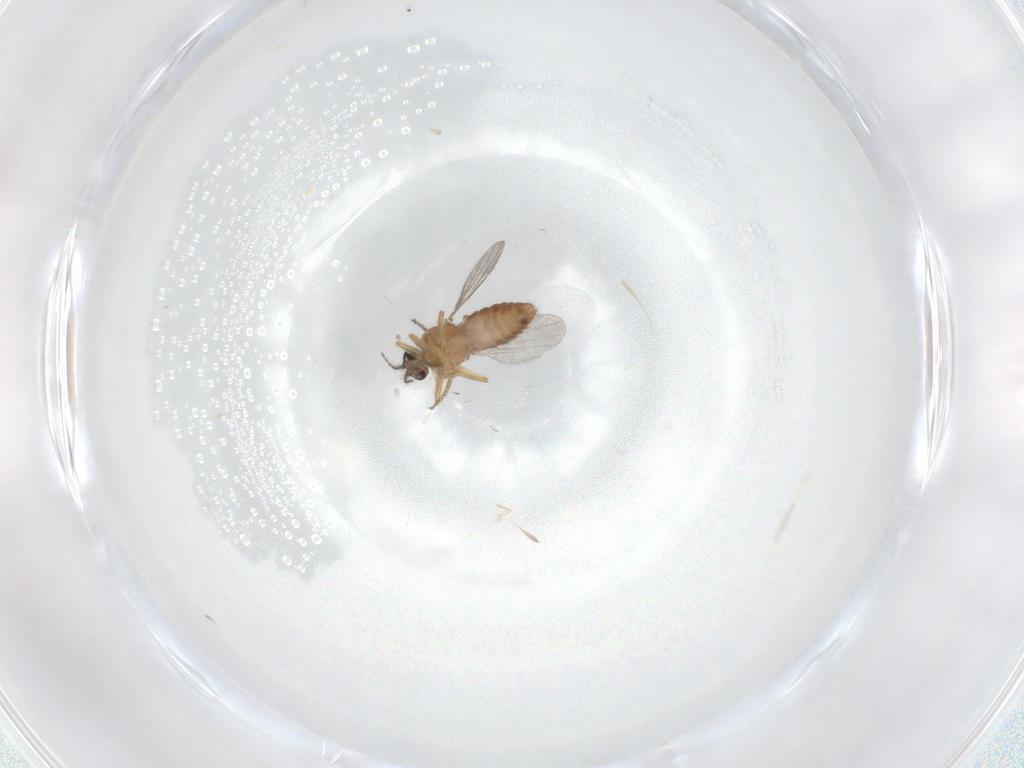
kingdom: Animalia
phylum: Arthropoda
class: Insecta
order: Diptera
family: Ceratopogonidae
